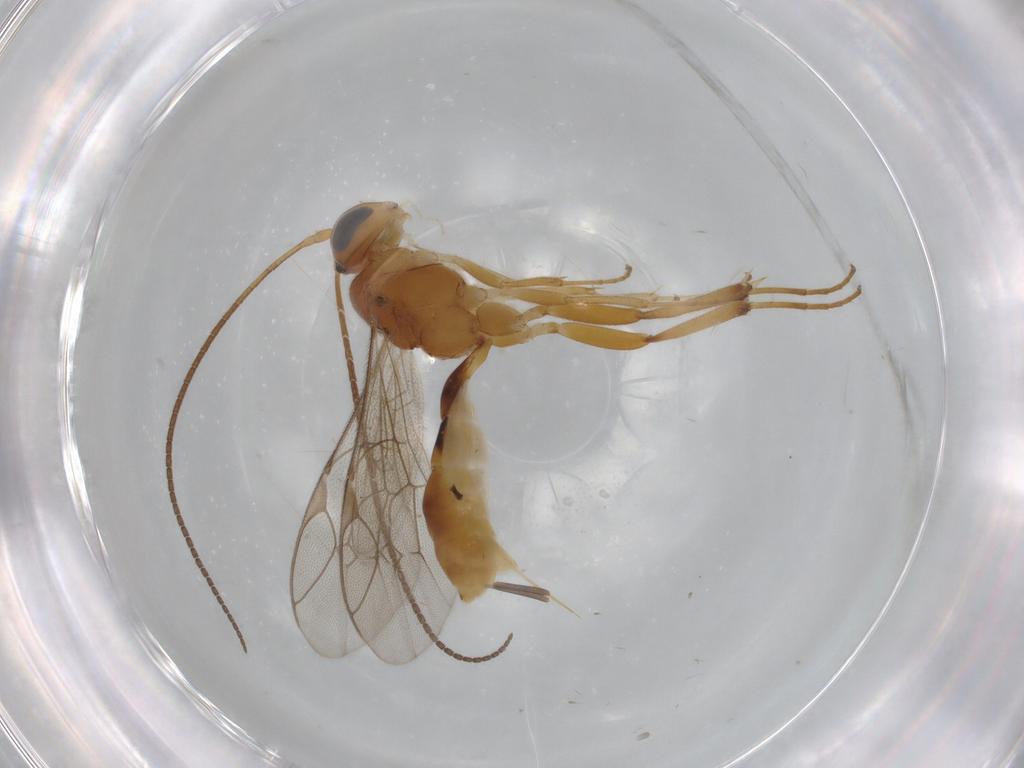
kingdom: Animalia
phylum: Arthropoda
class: Insecta
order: Hymenoptera
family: Ichneumonidae
